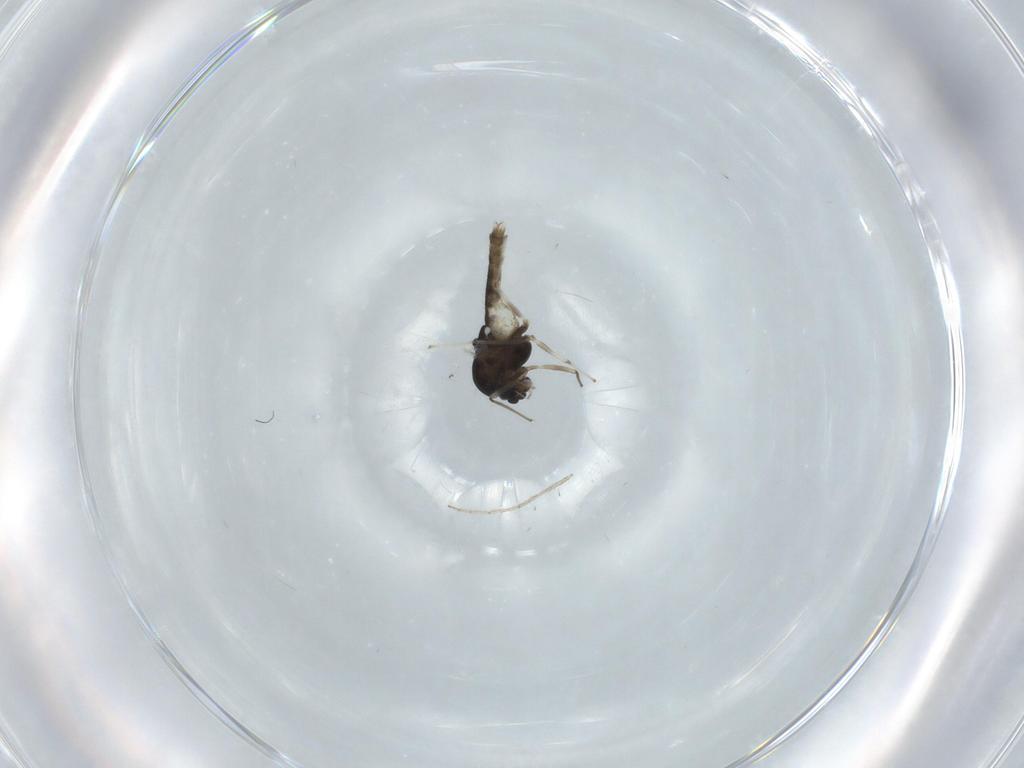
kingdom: Animalia
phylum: Arthropoda
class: Insecta
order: Diptera
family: Chironomidae
